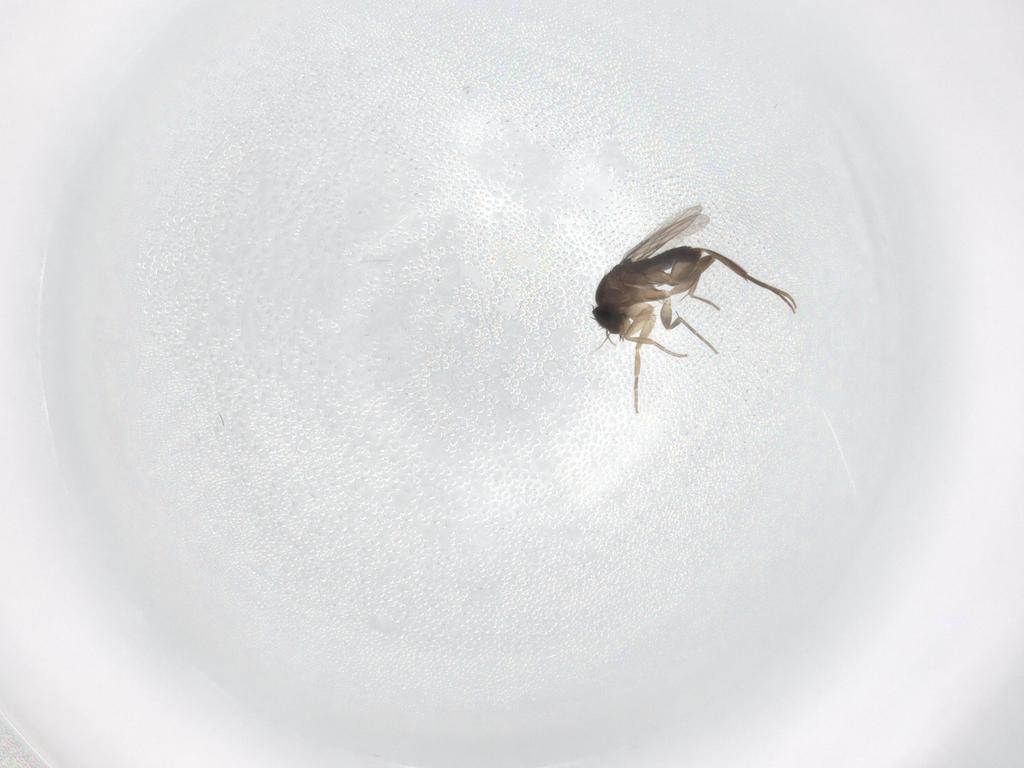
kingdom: Animalia
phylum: Arthropoda
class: Insecta
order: Diptera
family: Phoridae
